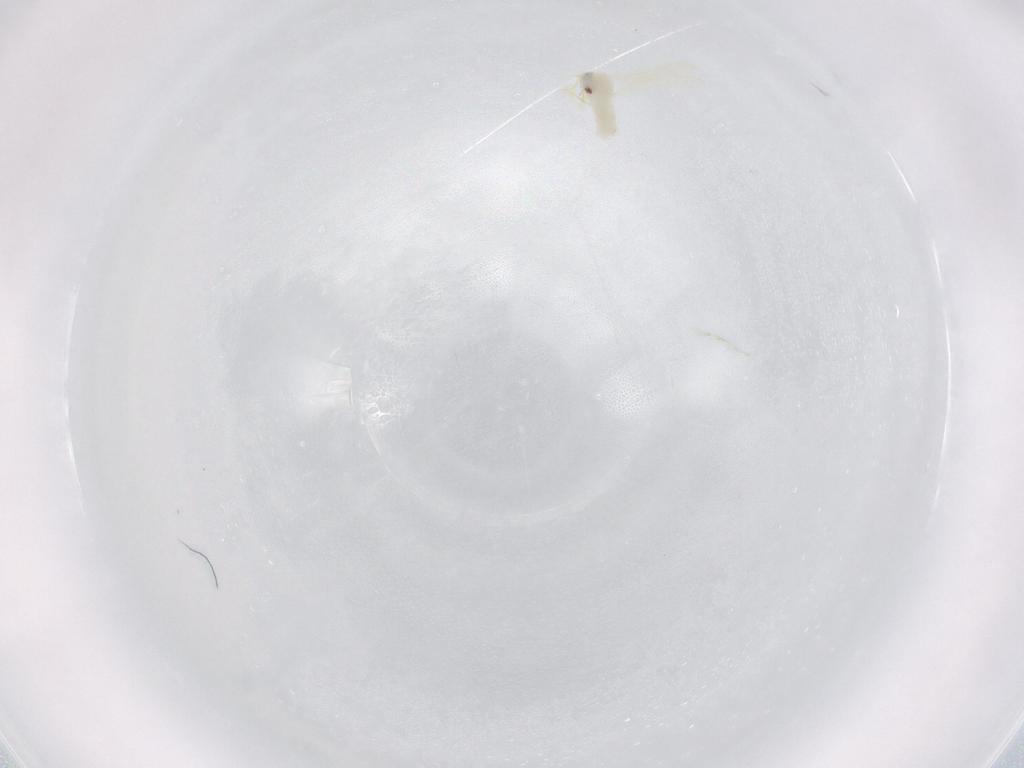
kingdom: Animalia
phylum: Arthropoda
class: Insecta
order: Hemiptera
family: Aleyrodidae
